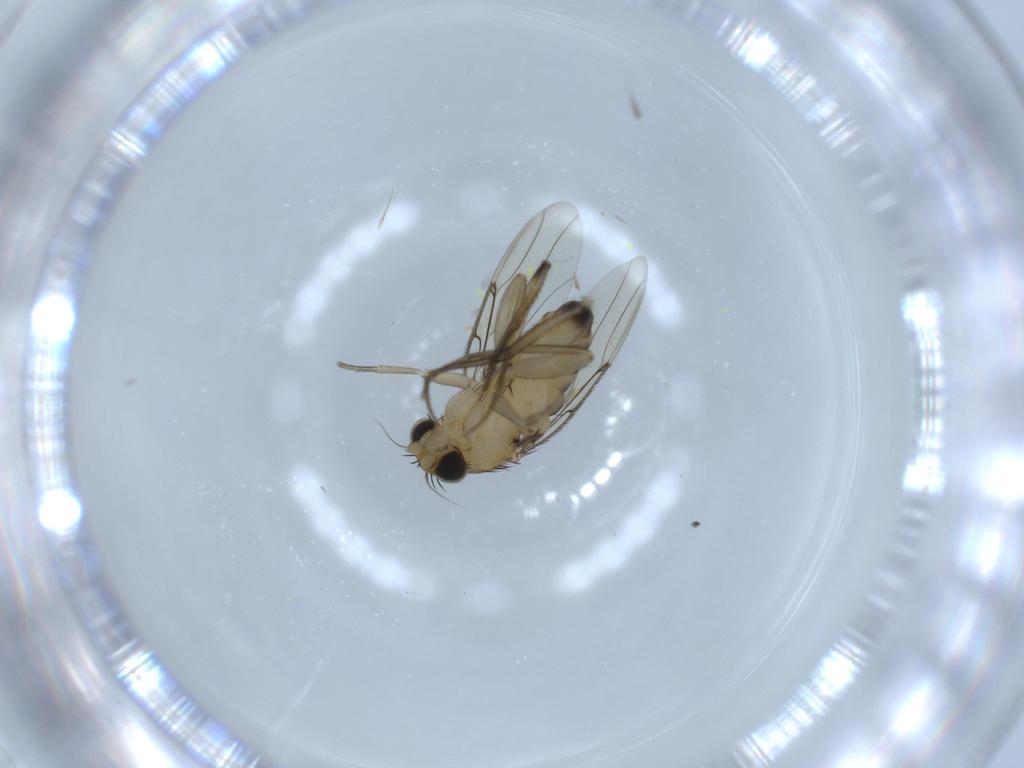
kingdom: Animalia
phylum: Arthropoda
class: Insecta
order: Diptera
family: Phoridae
